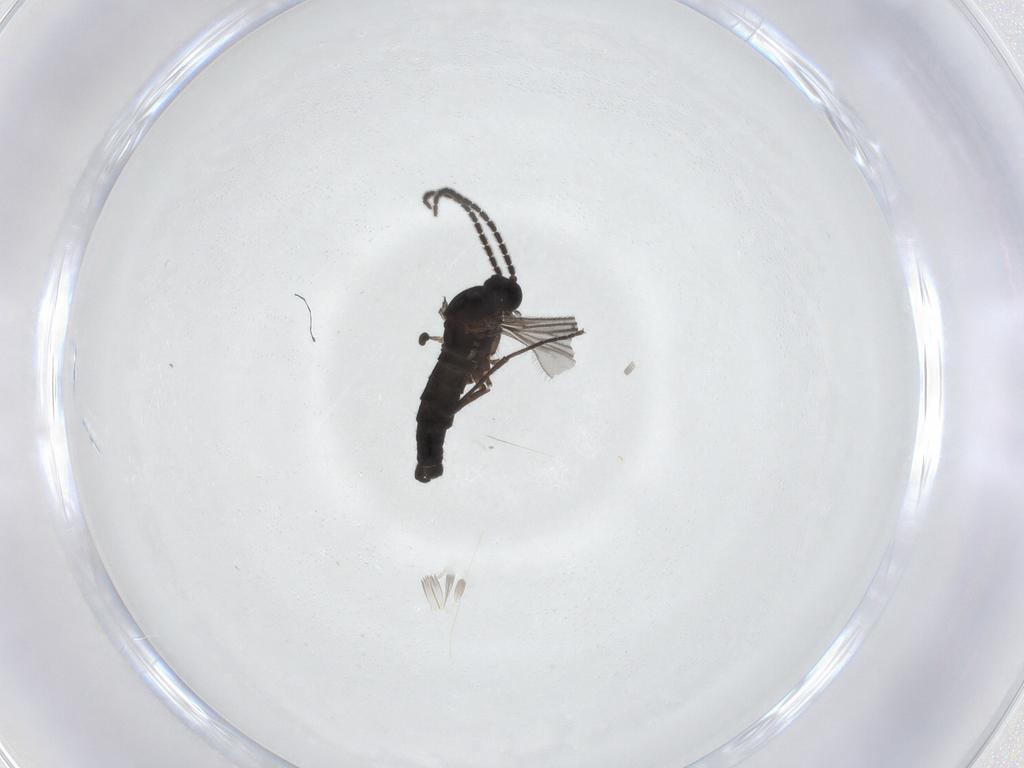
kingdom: Animalia
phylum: Arthropoda
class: Insecta
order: Diptera
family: Sciaridae
